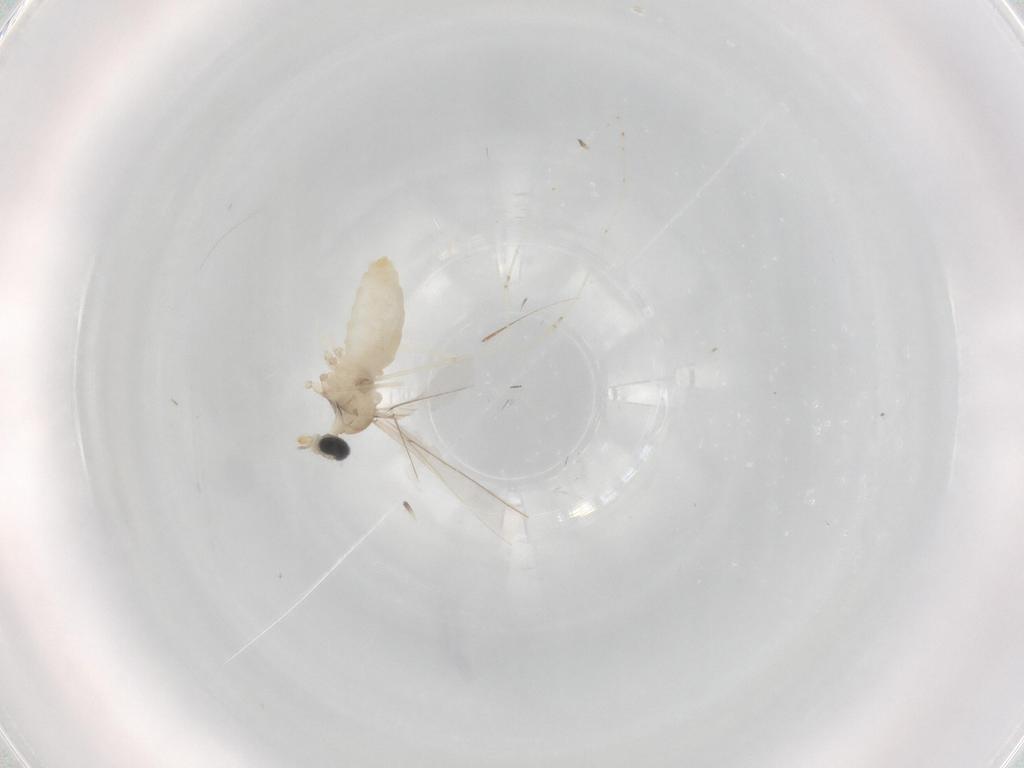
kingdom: Animalia
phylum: Arthropoda
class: Insecta
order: Diptera
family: Cecidomyiidae
